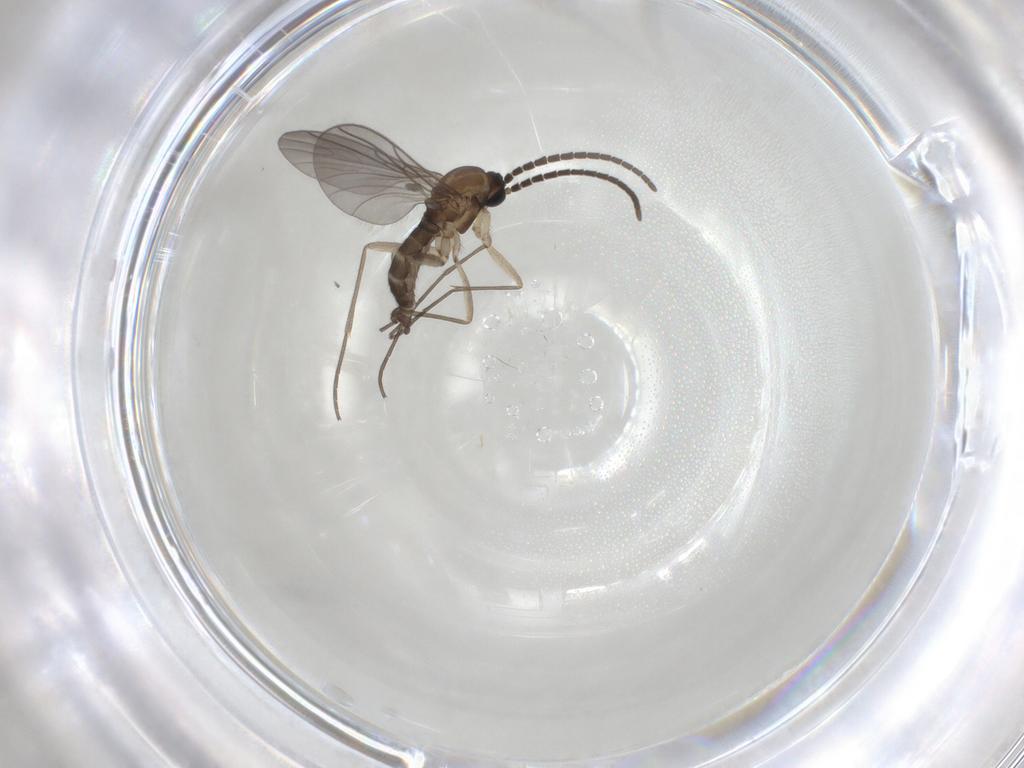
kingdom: Animalia
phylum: Arthropoda
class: Insecta
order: Diptera
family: Sciaridae
